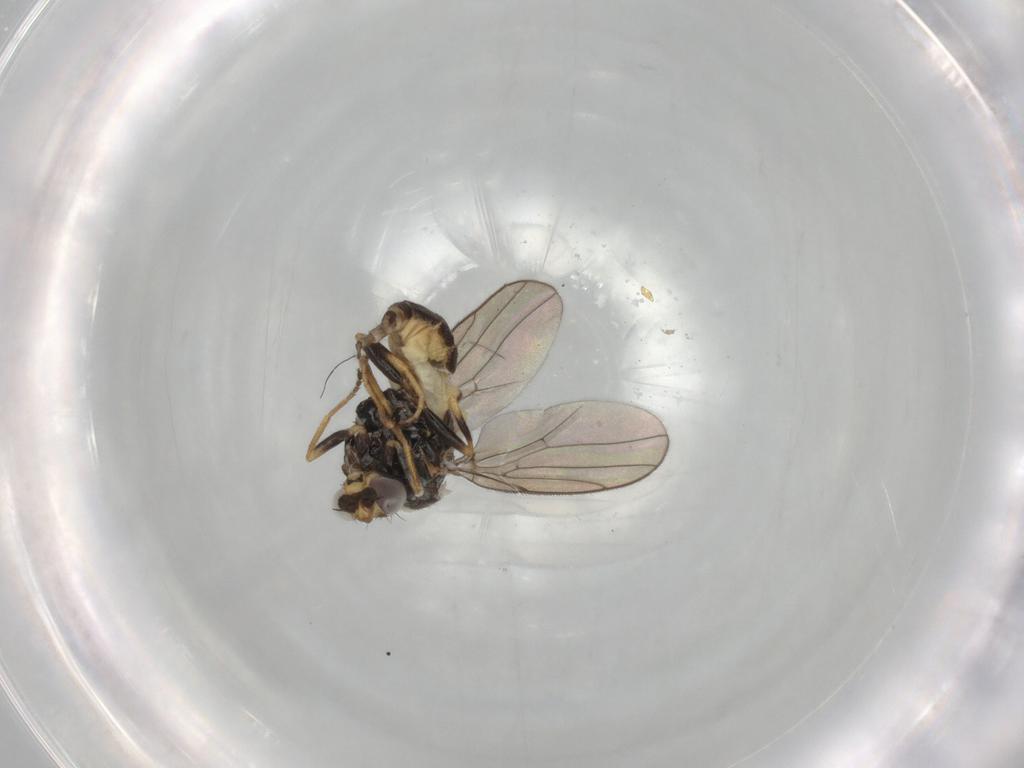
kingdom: Animalia
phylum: Arthropoda
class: Insecta
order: Diptera
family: Chloropidae
